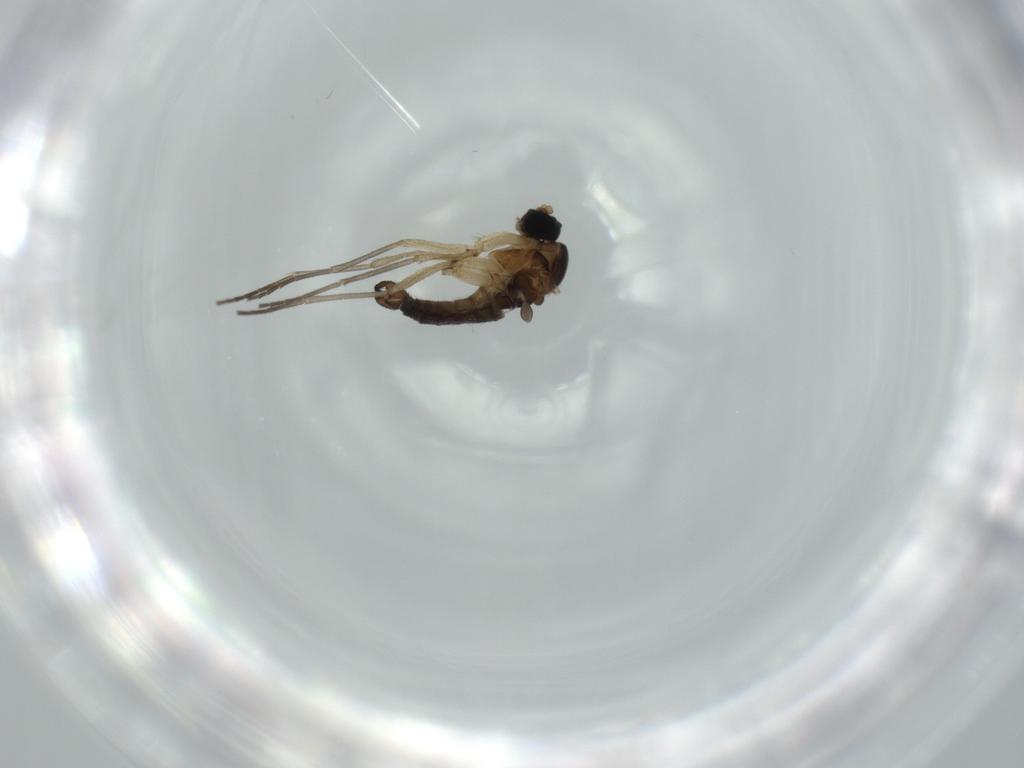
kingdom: Animalia
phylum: Arthropoda
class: Insecta
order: Diptera
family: Sciaridae
